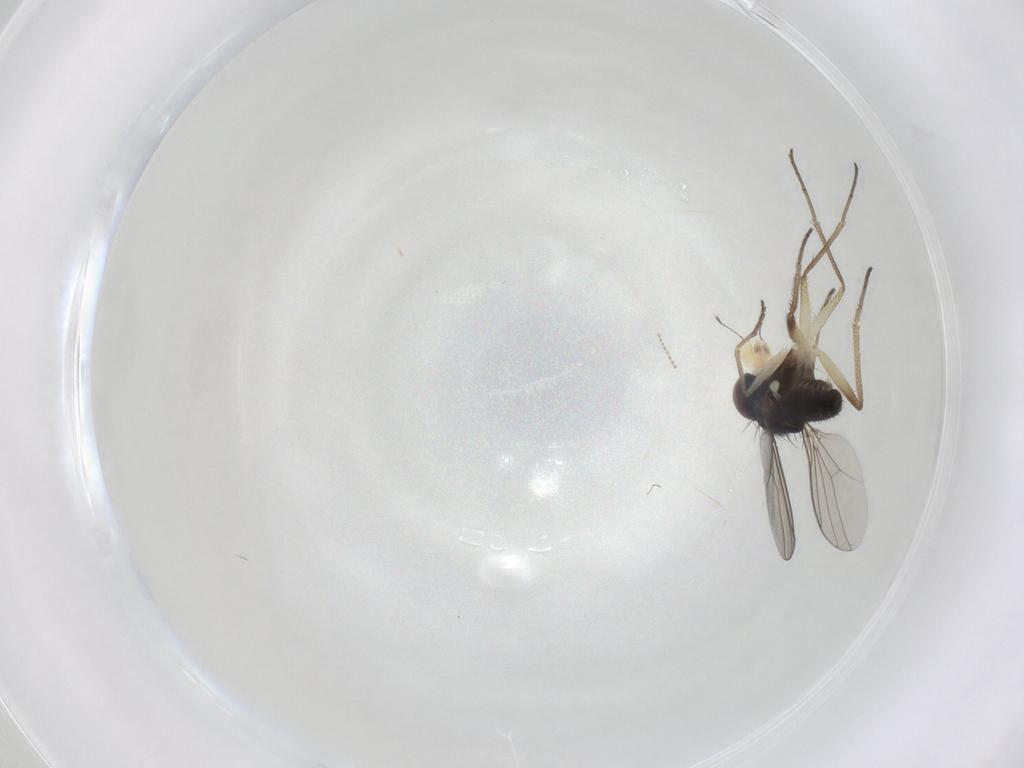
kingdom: Animalia
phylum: Arthropoda
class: Insecta
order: Diptera
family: Dolichopodidae
